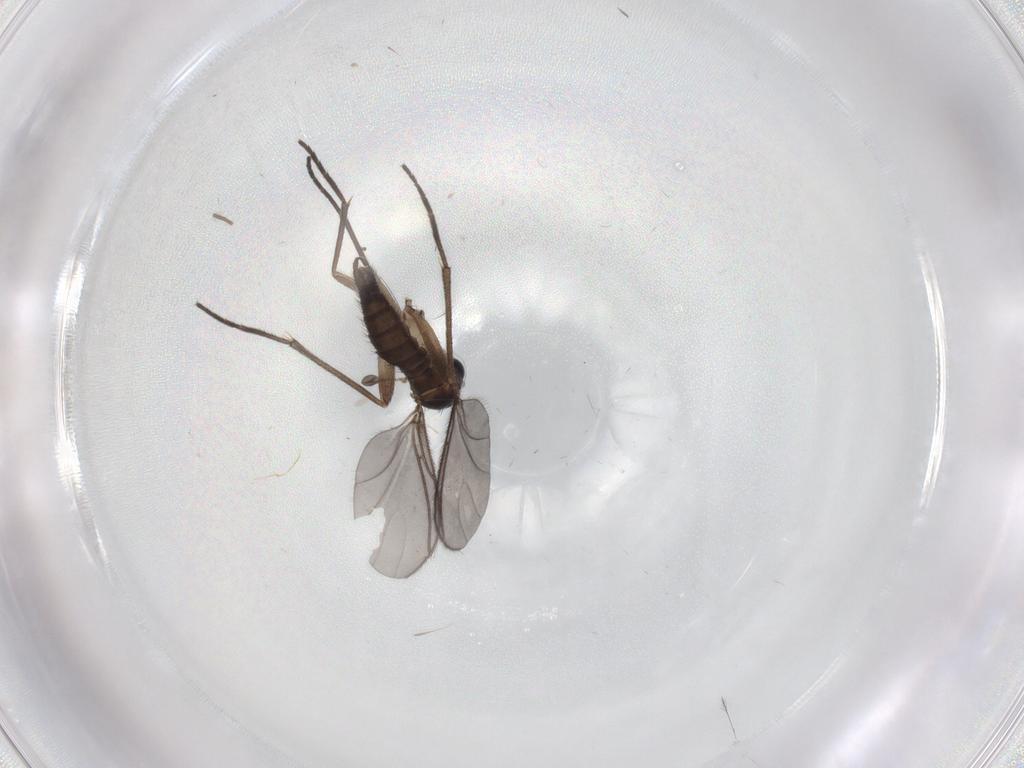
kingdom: Animalia
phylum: Arthropoda
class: Insecta
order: Diptera
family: Sciaridae
